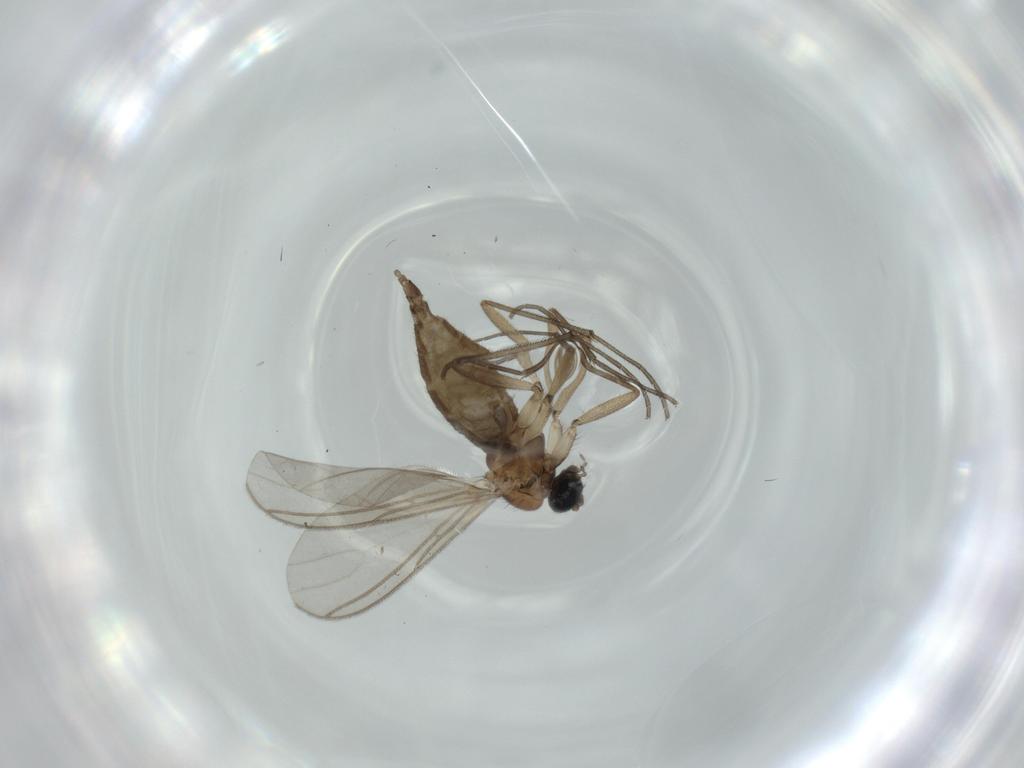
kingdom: Animalia
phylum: Arthropoda
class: Insecta
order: Diptera
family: Sciaridae
